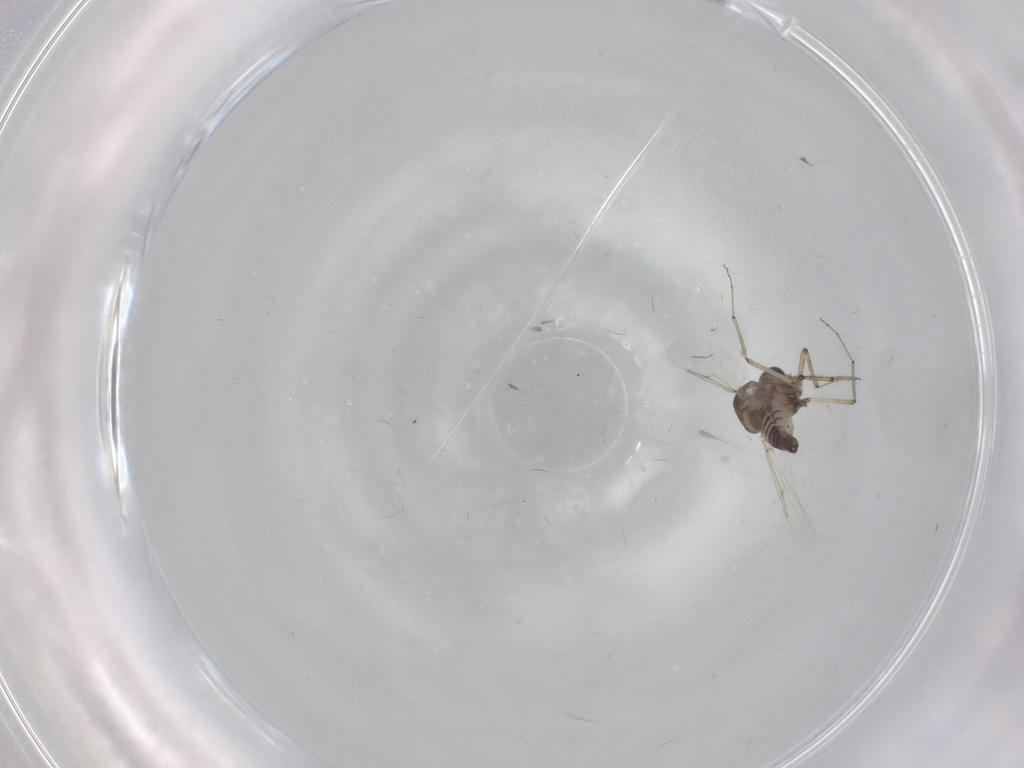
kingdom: Animalia
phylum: Arthropoda
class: Insecta
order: Diptera
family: Ceratopogonidae
